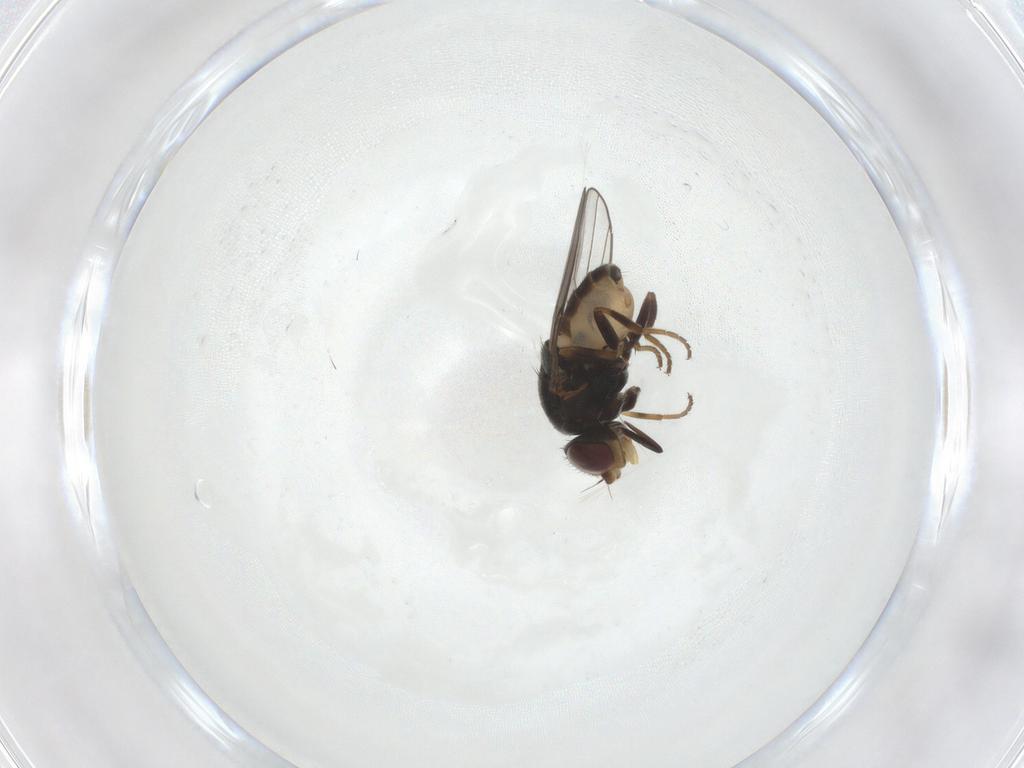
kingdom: Animalia
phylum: Arthropoda
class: Insecta
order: Diptera
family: Chloropidae
